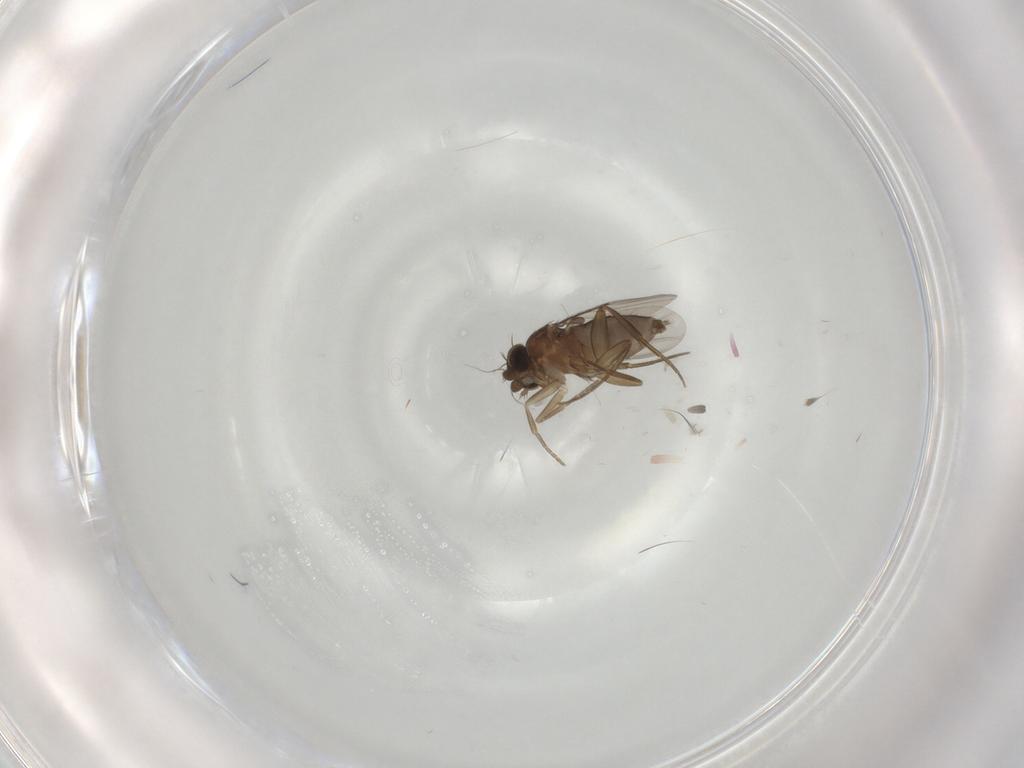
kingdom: Animalia
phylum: Arthropoda
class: Insecta
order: Diptera
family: Phoridae
